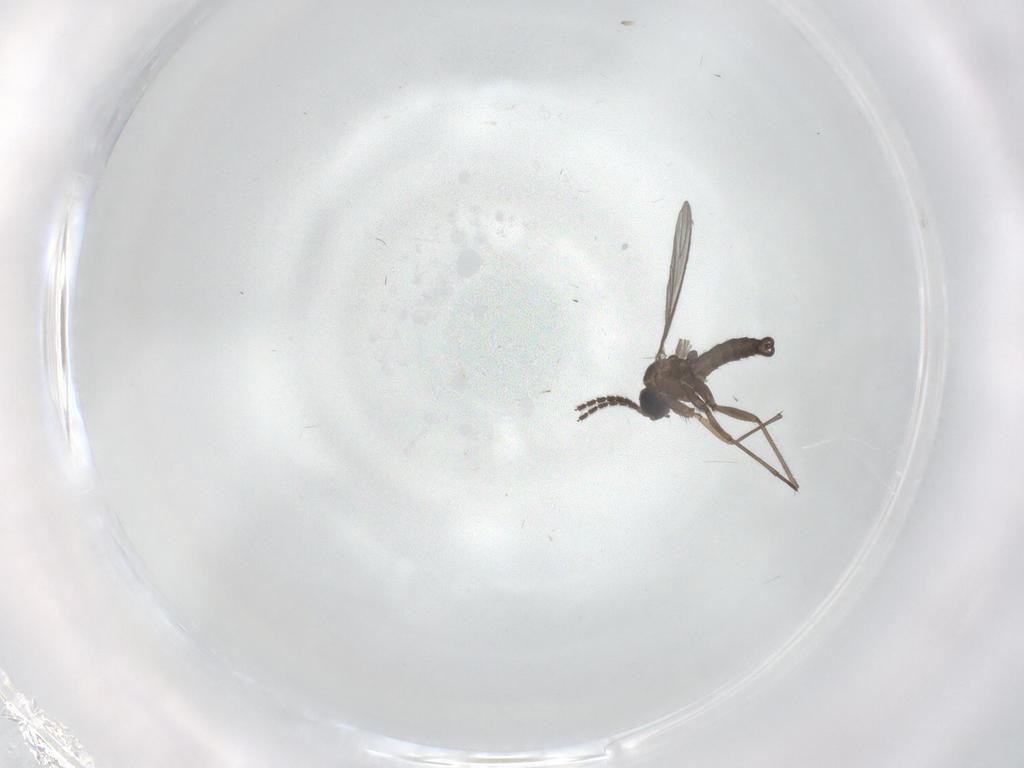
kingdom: Animalia
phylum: Arthropoda
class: Insecta
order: Diptera
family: Sciaridae
